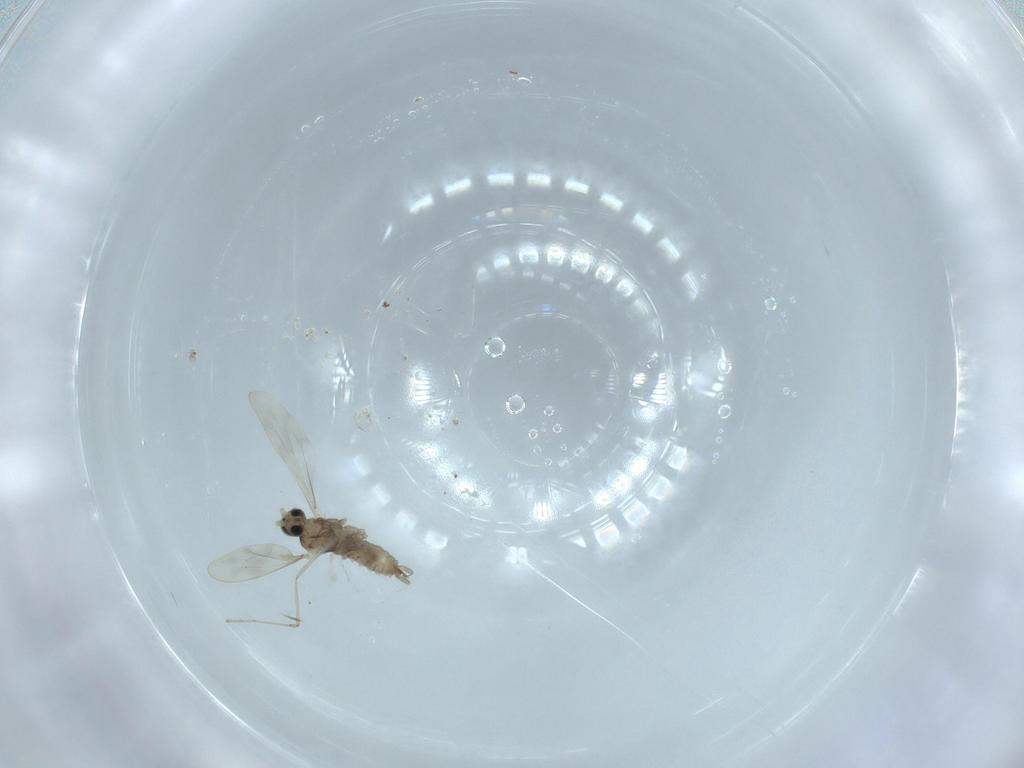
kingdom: Animalia
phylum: Arthropoda
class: Insecta
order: Diptera
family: Cecidomyiidae
